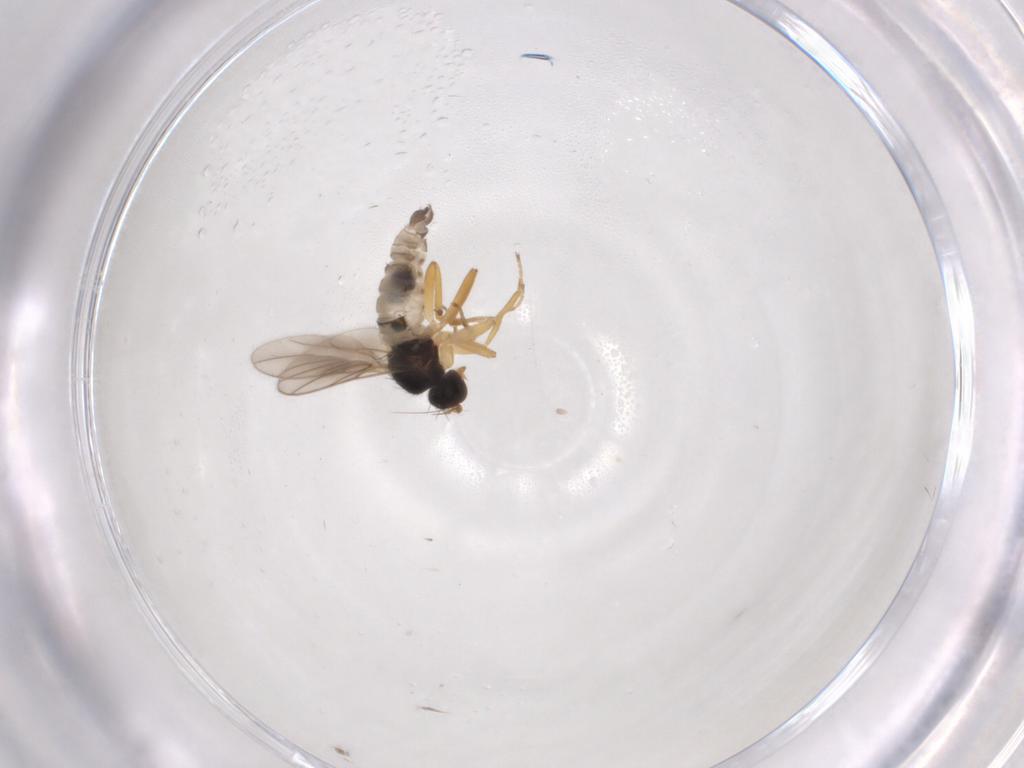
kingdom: Animalia
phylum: Arthropoda
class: Insecta
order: Diptera
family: Hybotidae
